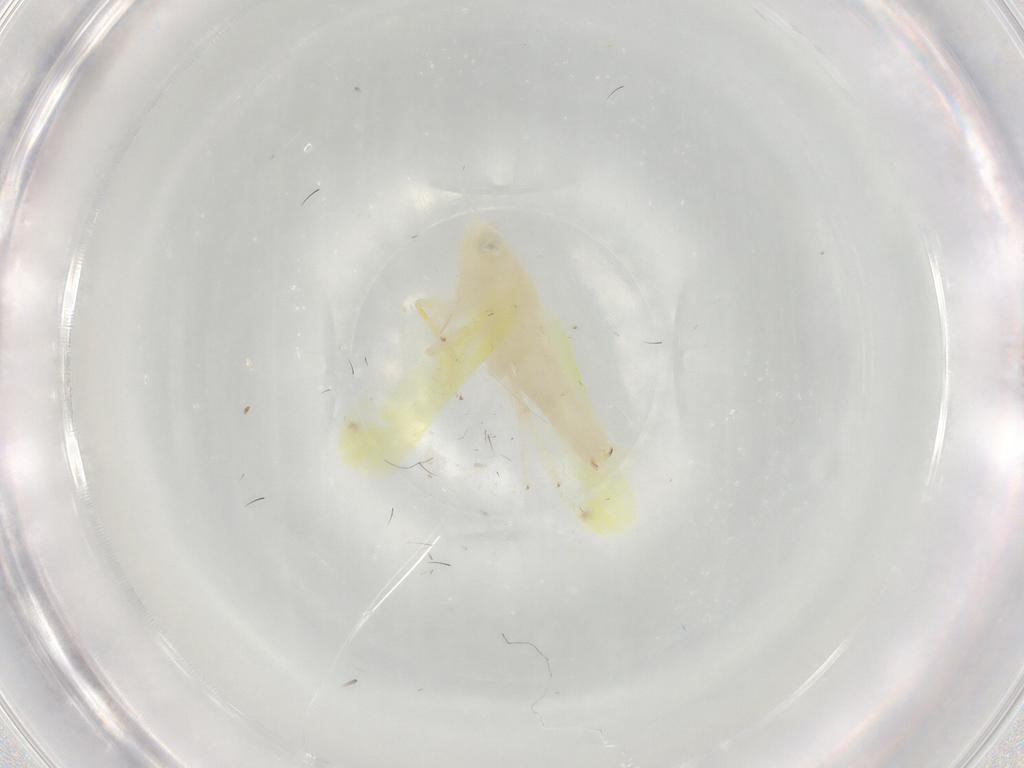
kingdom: Animalia
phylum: Arthropoda
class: Insecta
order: Hemiptera
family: Cicadellidae
